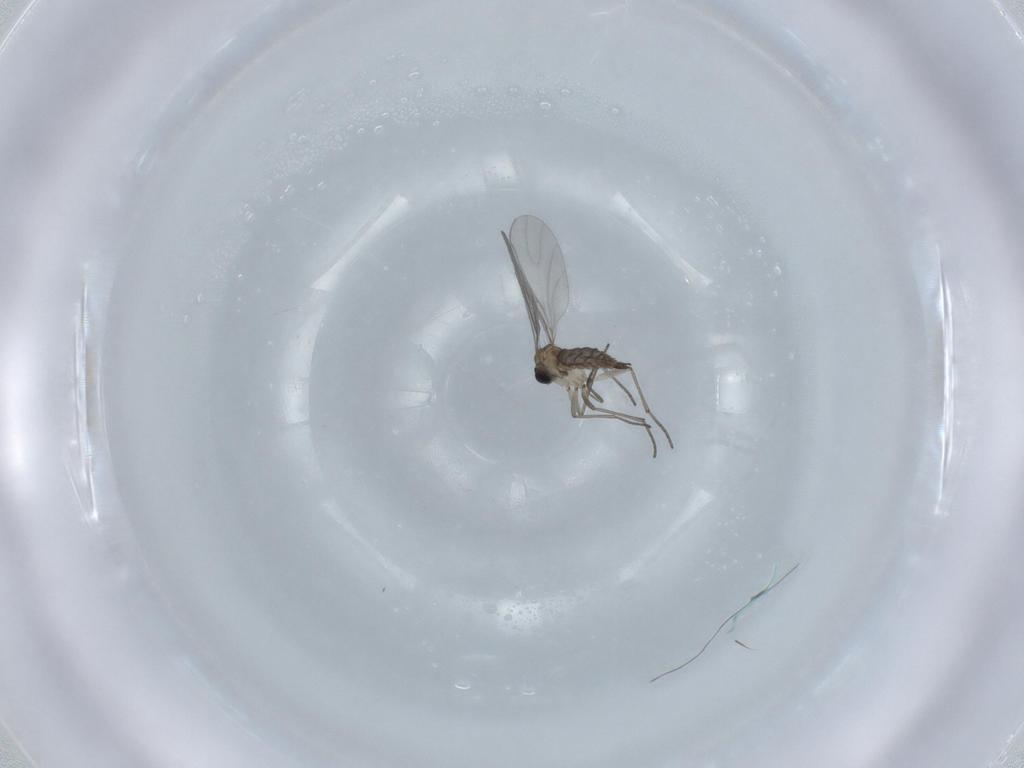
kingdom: Animalia
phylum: Arthropoda
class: Insecta
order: Diptera
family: Sciaridae
